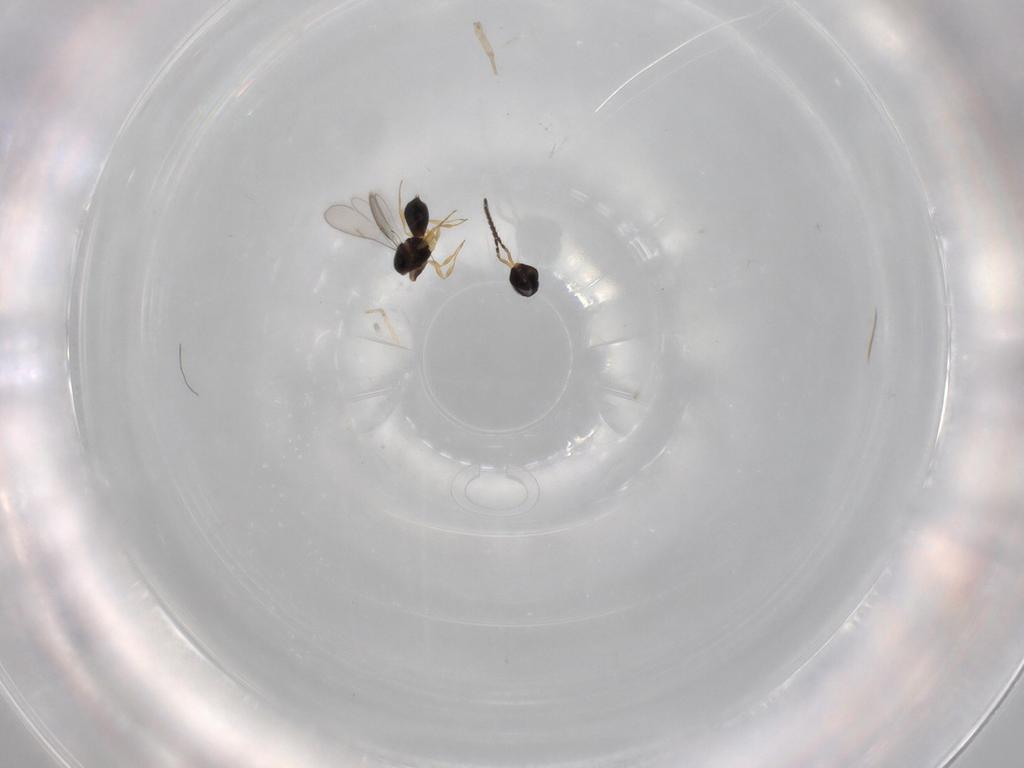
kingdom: Animalia
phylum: Arthropoda
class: Insecta
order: Hymenoptera
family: Scelionidae
